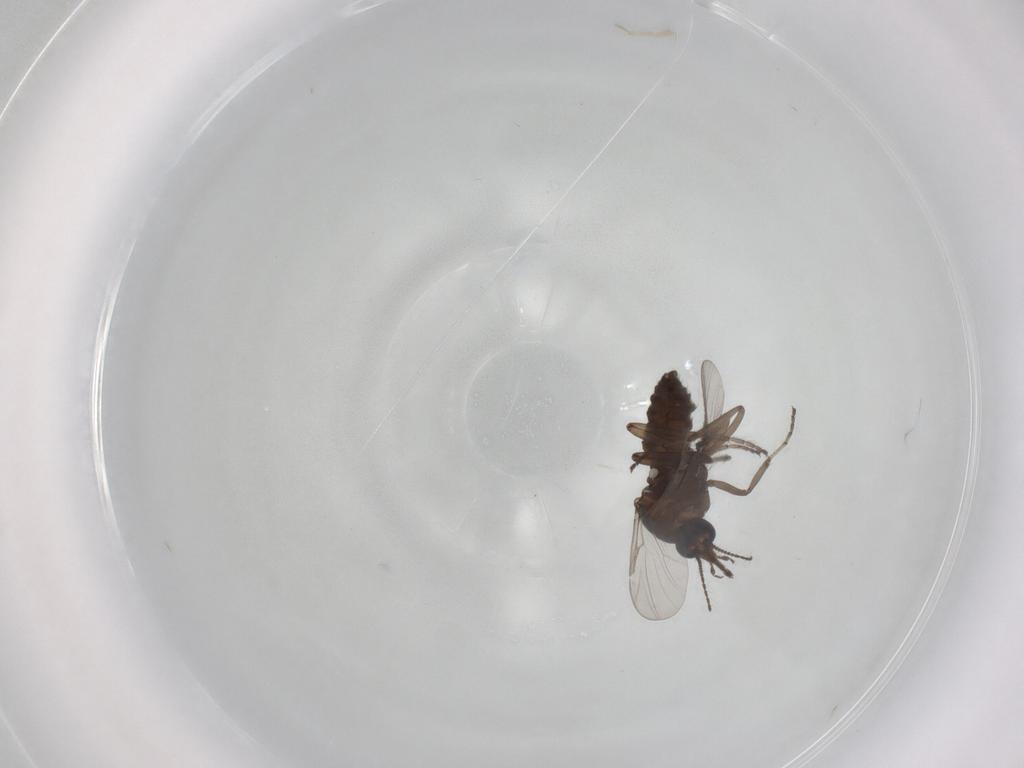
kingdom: Animalia
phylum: Arthropoda
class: Insecta
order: Diptera
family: Ceratopogonidae
